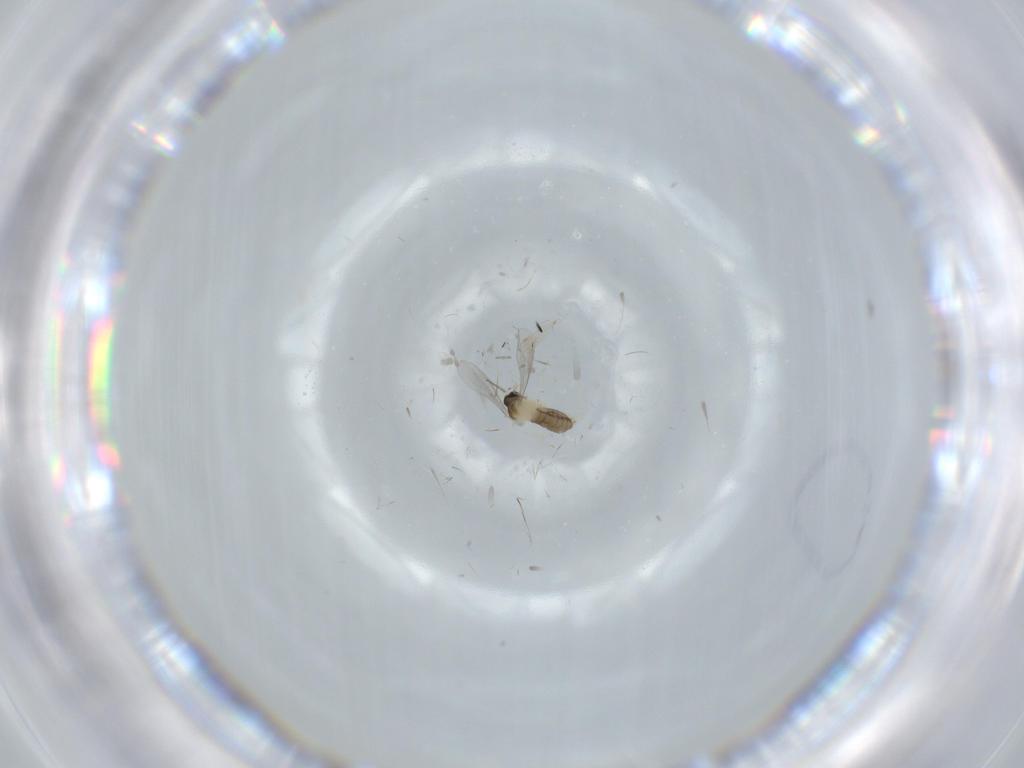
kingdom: Animalia
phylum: Arthropoda
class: Insecta
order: Diptera
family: Cecidomyiidae
